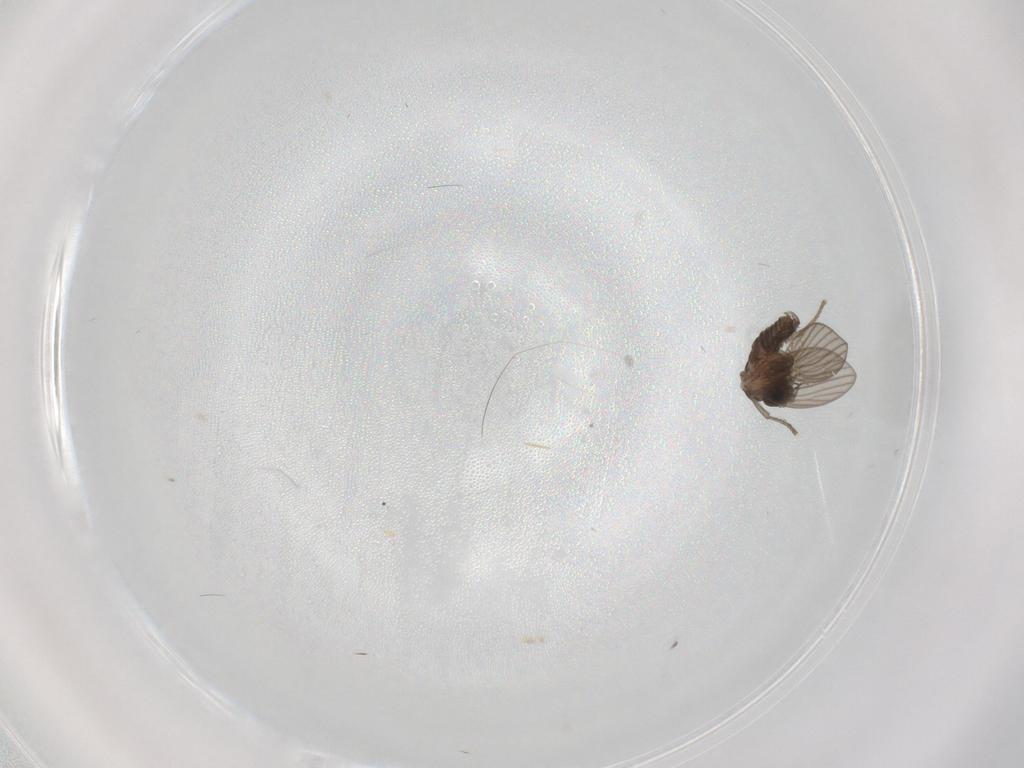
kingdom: Animalia
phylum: Arthropoda
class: Insecta
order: Diptera
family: Psychodidae
